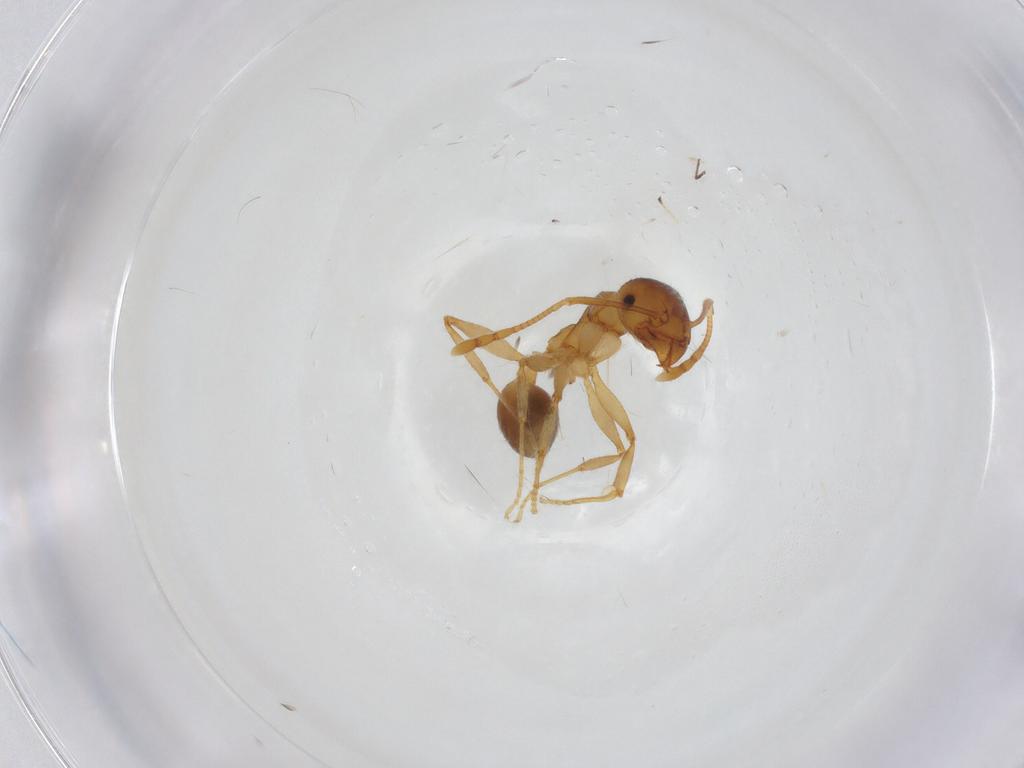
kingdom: Animalia
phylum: Arthropoda
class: Insecta
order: Hymenoptera
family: Formicidae
